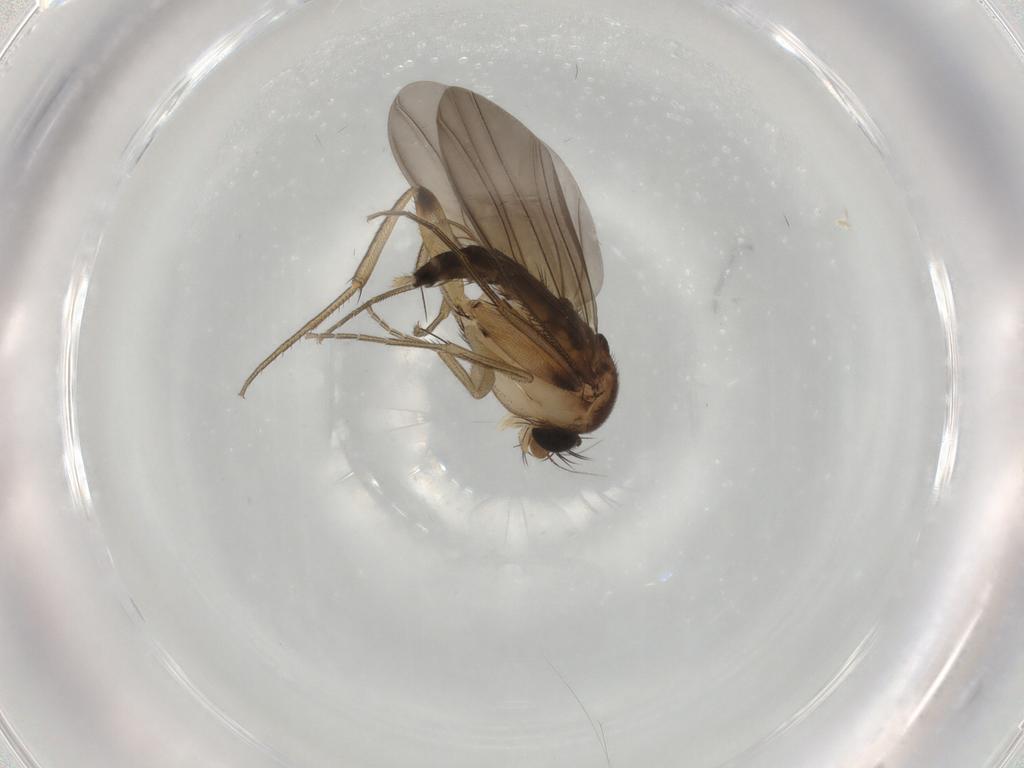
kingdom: Animalia
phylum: Arthropoda
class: Insecta
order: Diptera
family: Phoridae
